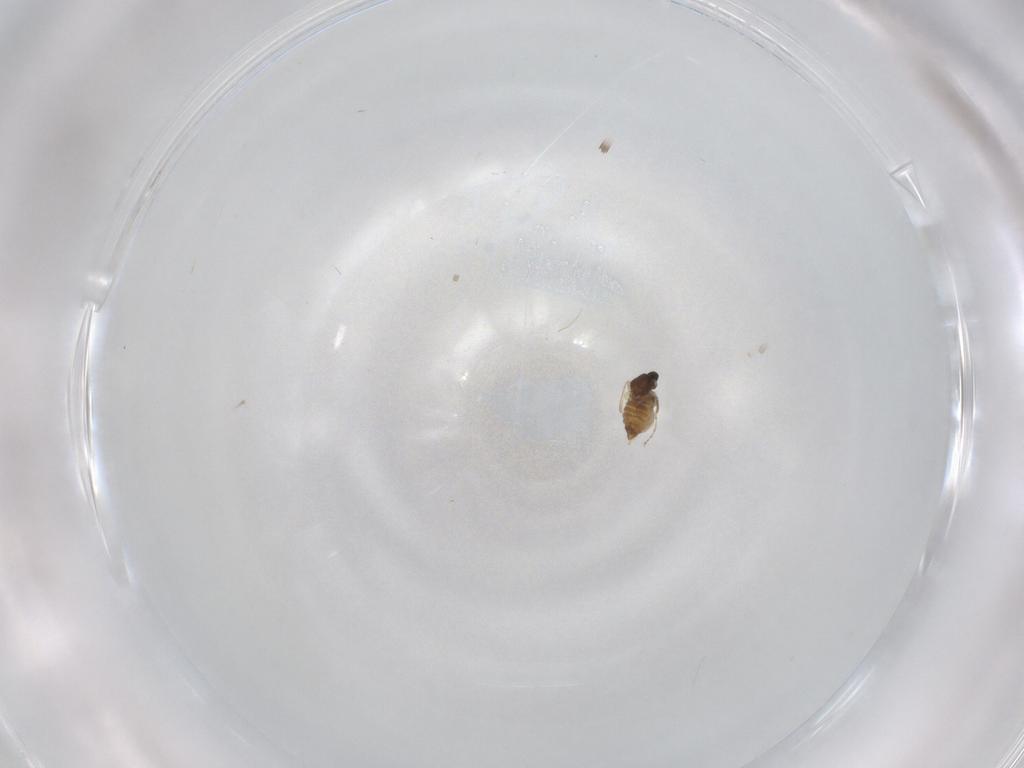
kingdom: Animalia
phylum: Arthropoda
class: Insecta
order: Diptera
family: Cecidomyiidae
